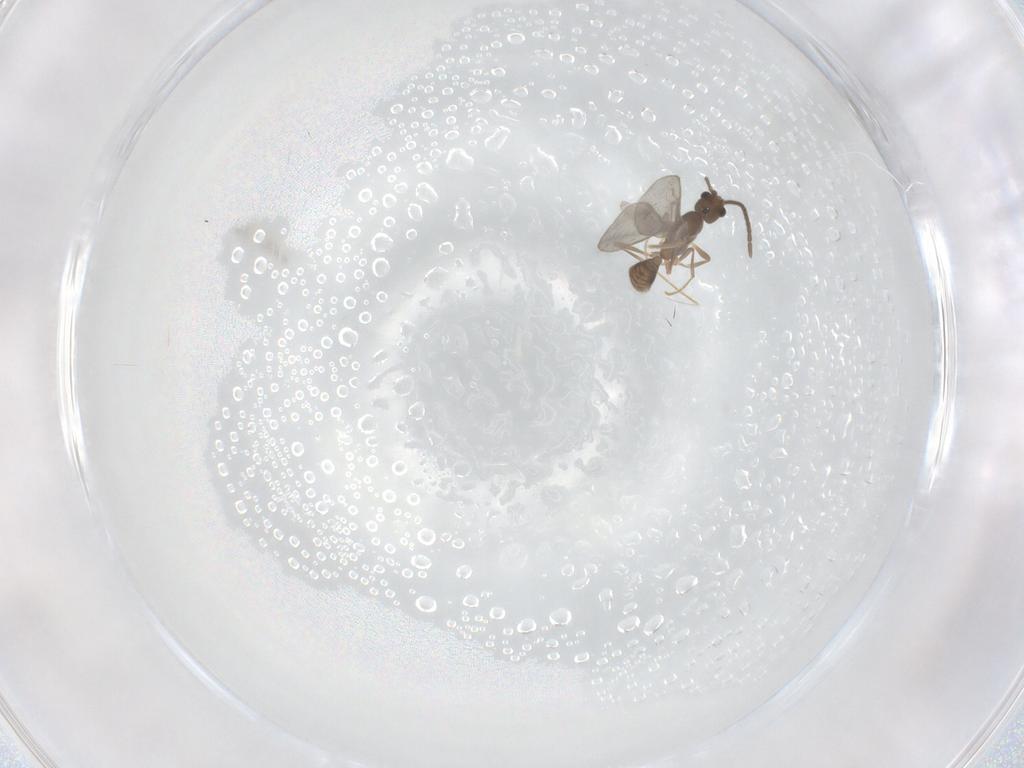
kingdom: Animalia
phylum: Arthropoda
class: Insecta
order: Hymenoptera
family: Formicidae
